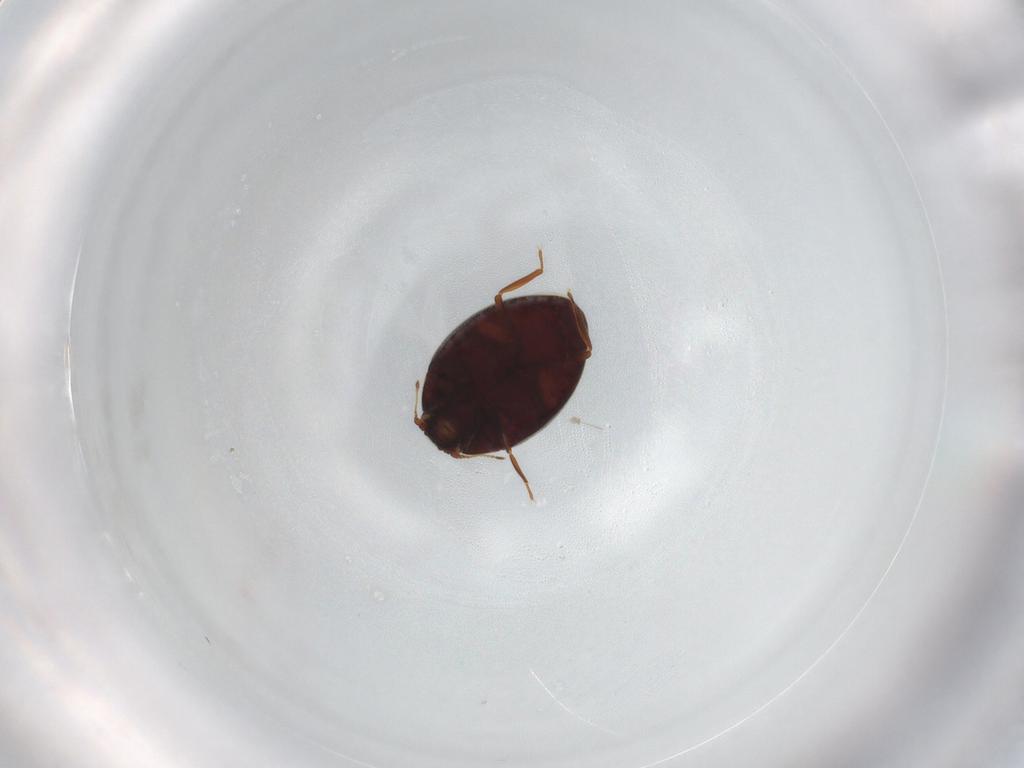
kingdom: Animalia
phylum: Arthropoda
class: Insecta
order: Coleoptera
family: Limnichidae
